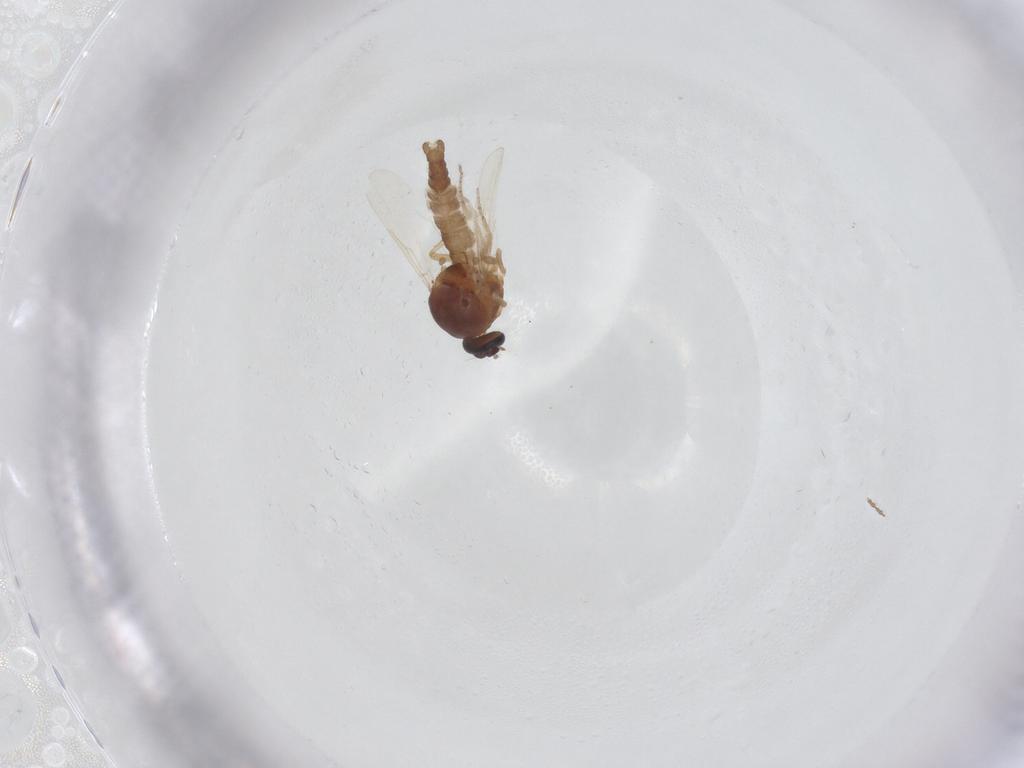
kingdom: Animalia
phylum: Arthropoda
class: Insecta
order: Diptera
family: Ceratopogonidae
